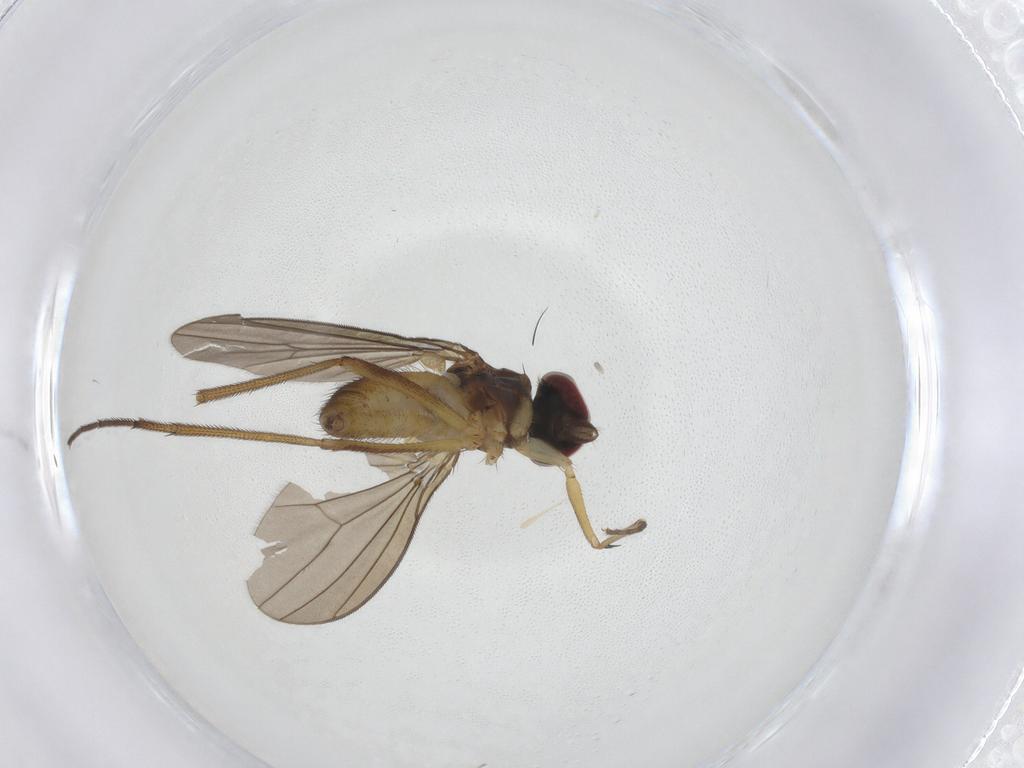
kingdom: Animalia
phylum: Arthropoda
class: Insecta
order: Diptera
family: Dolichopodidae
